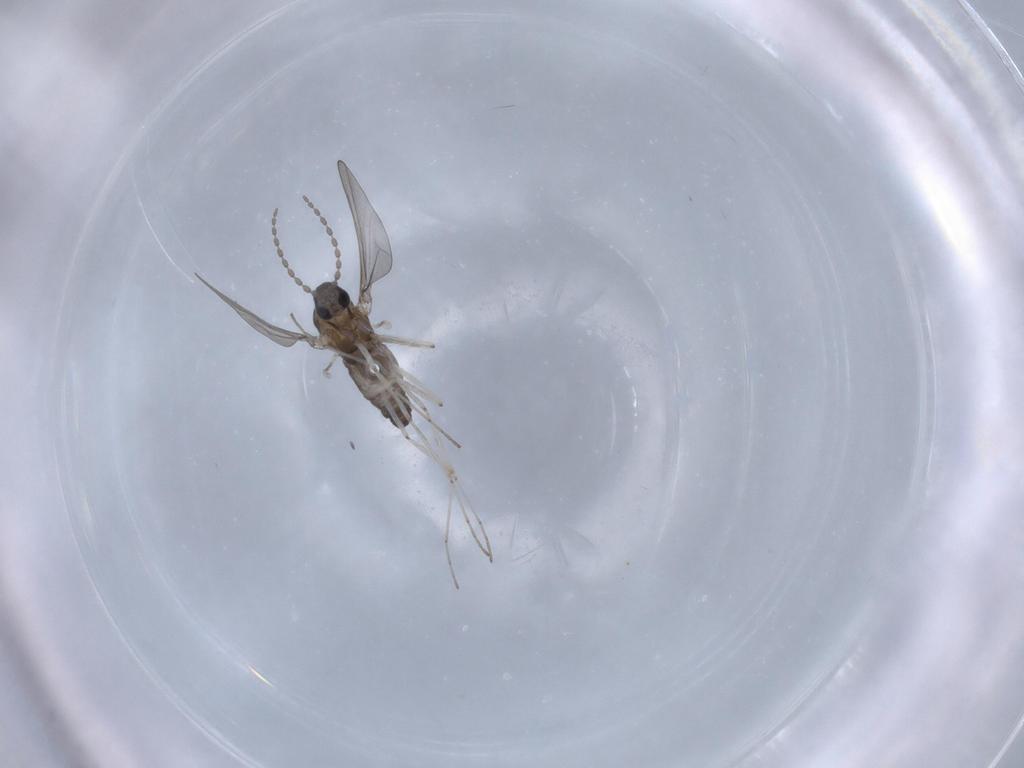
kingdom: Animalia
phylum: Arthropoda
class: Insecta
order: Diptera
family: Cecidomyiidae
